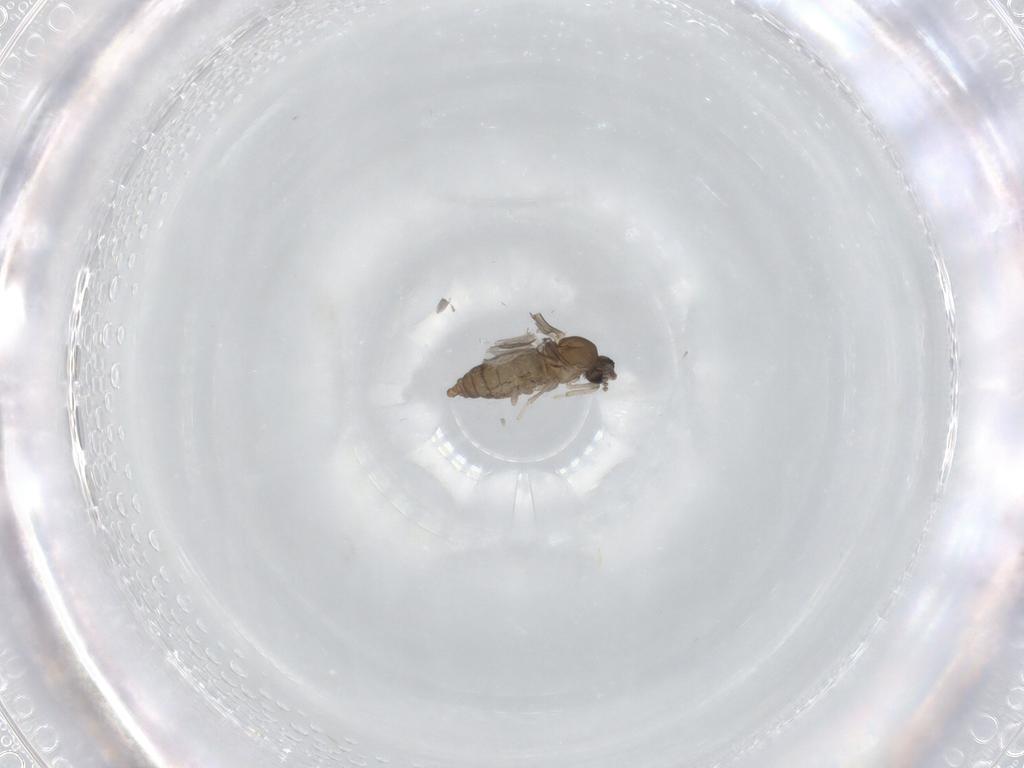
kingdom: Animalia
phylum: Arthropoda
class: Insecta
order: Diptera
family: Cecidomyiidae
